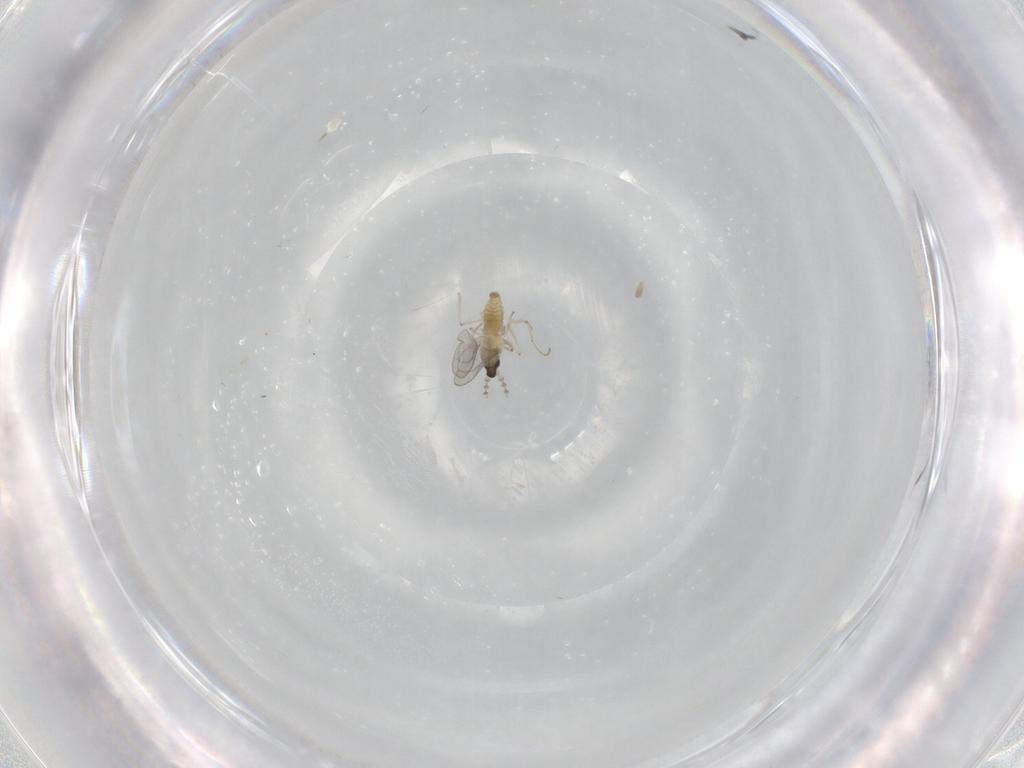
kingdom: Animalia
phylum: Arthropoda
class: Insecta
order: Diptera
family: Cecidomyiidae
